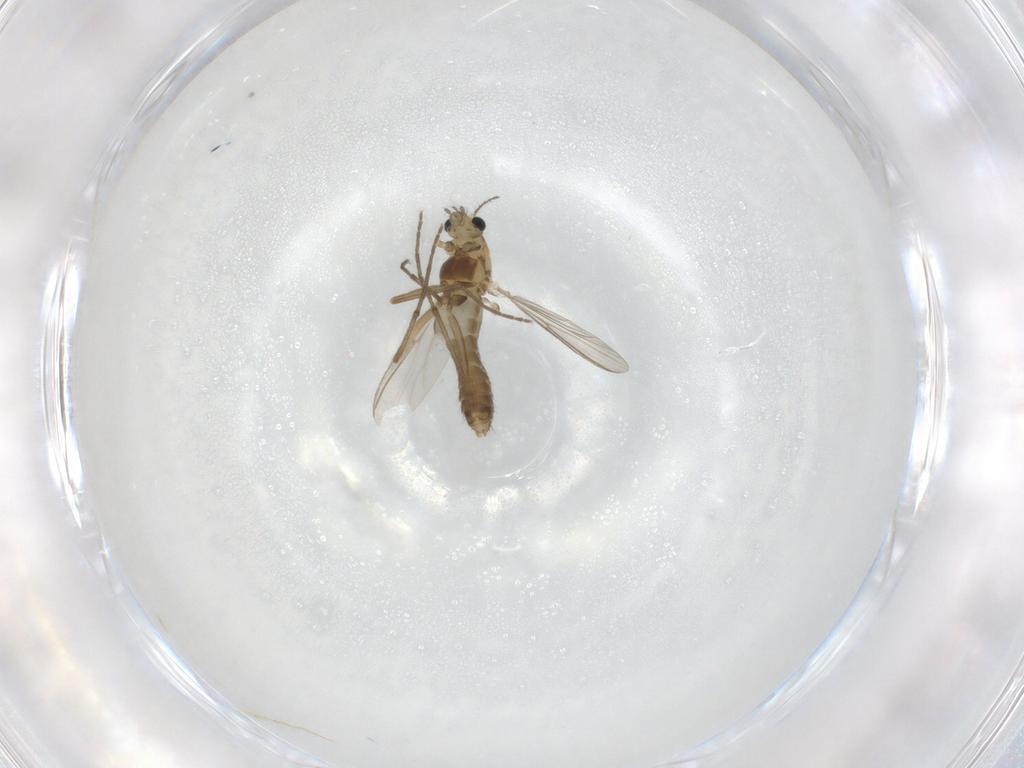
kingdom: Animalia
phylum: Arthropoda
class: Insecta
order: Diptera
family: Chironomidae
